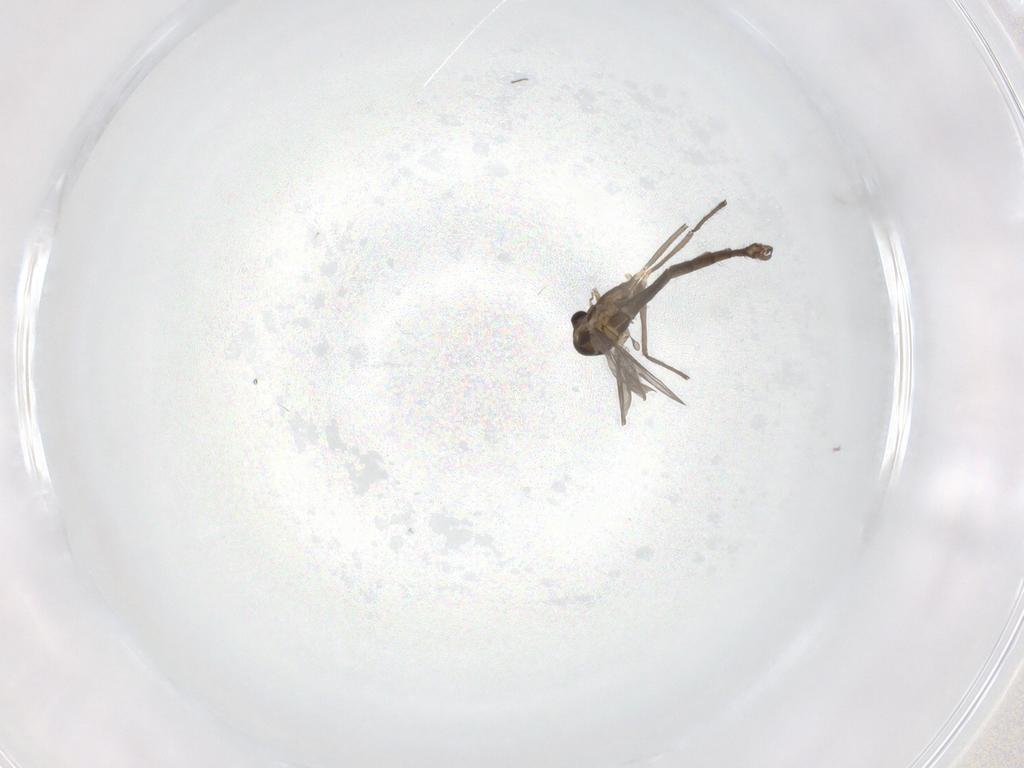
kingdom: Animalia
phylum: Arthropoda
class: Insecta
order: Diptera
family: Chironomidae
